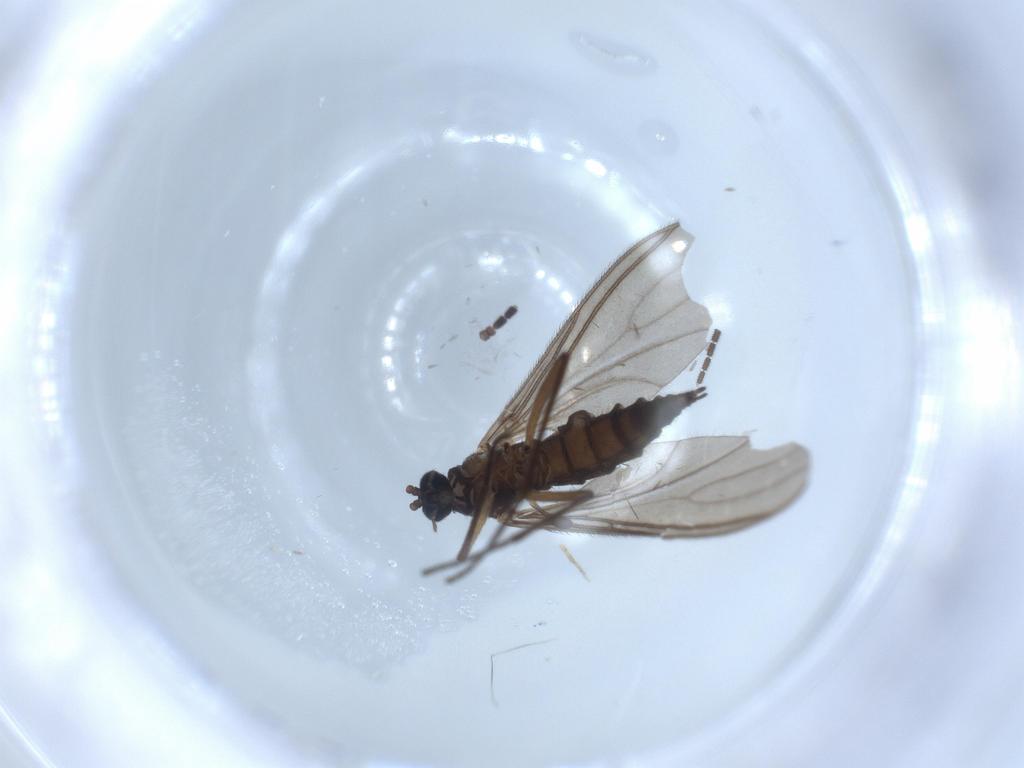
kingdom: Animalia
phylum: Arthropoda
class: Insecta
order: Diptera
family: Sciaridae
